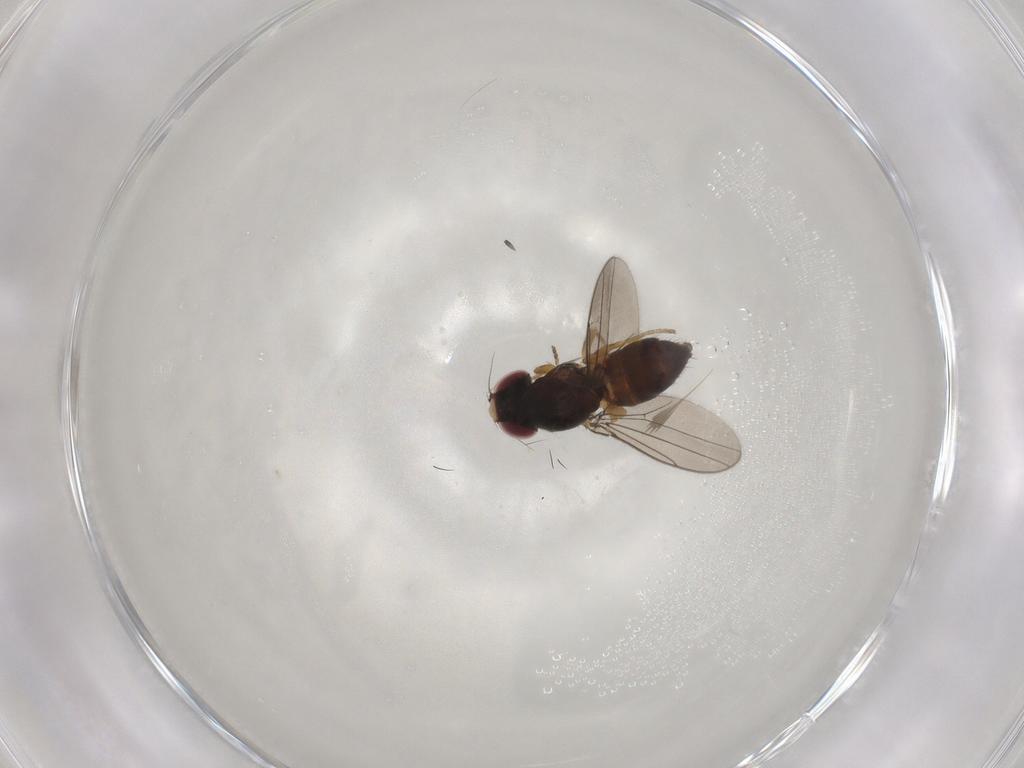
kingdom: Animalia
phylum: Arthropoda
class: Insecta
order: Diptera
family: Chloropidae
